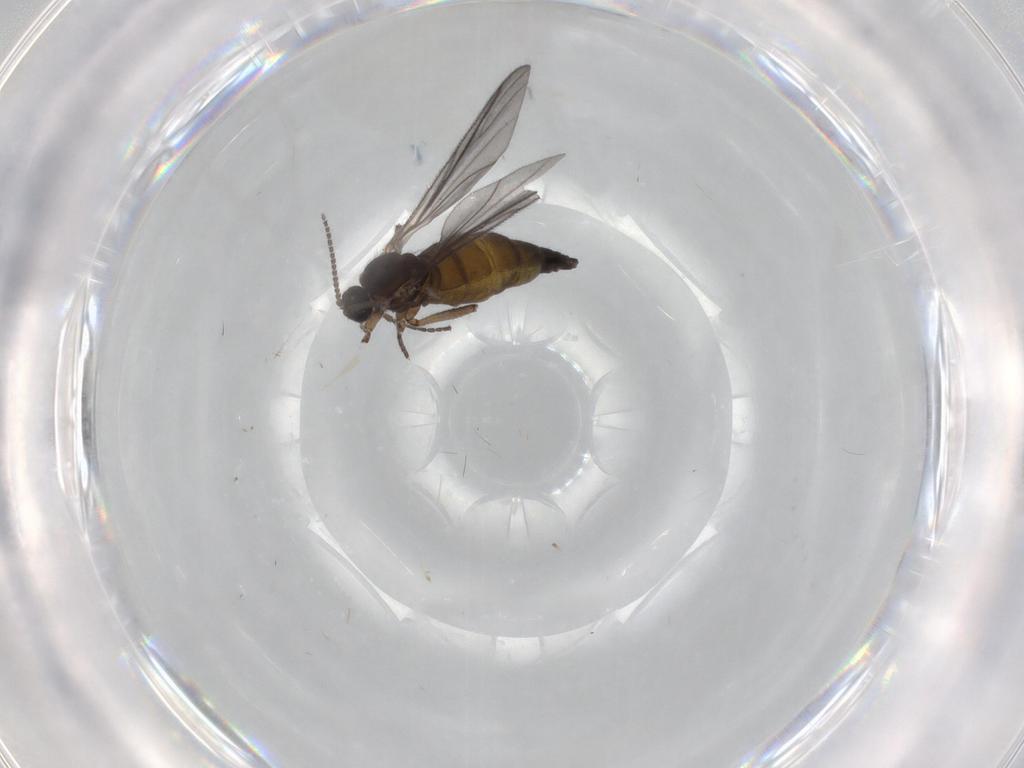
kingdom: Animalia
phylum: Arthropoda
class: Insecta
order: Diptera
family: Sciaridae
